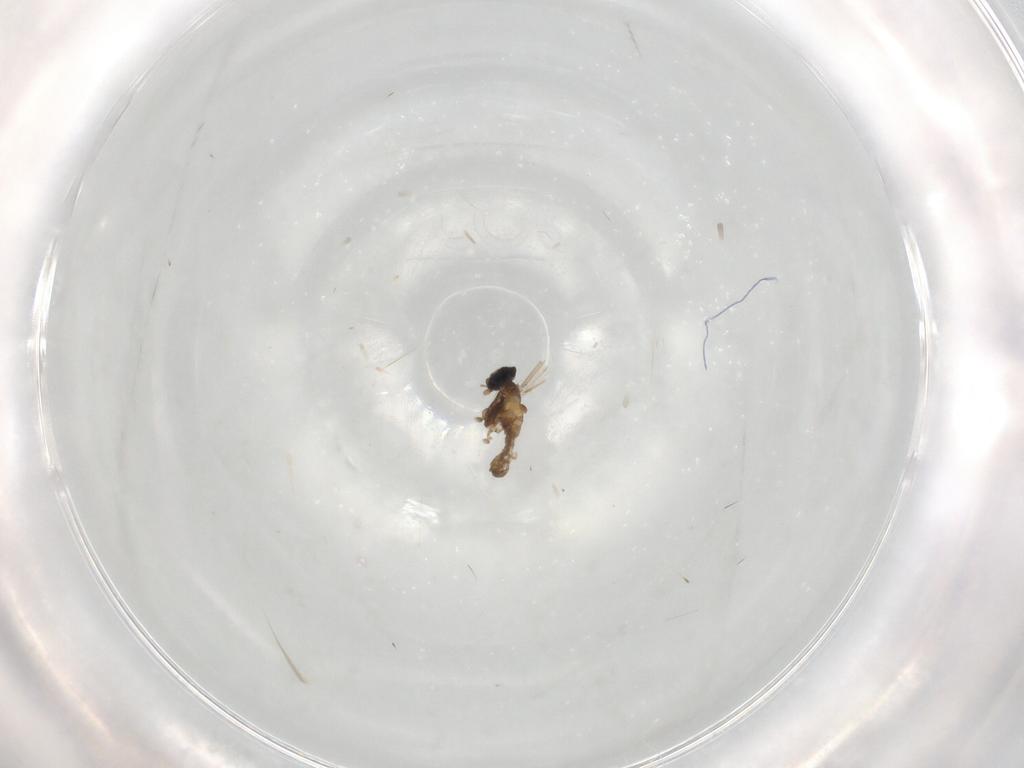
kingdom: Animalia
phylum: Arthropoda
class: Insecta
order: Diptera
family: Cecidomyiidae
